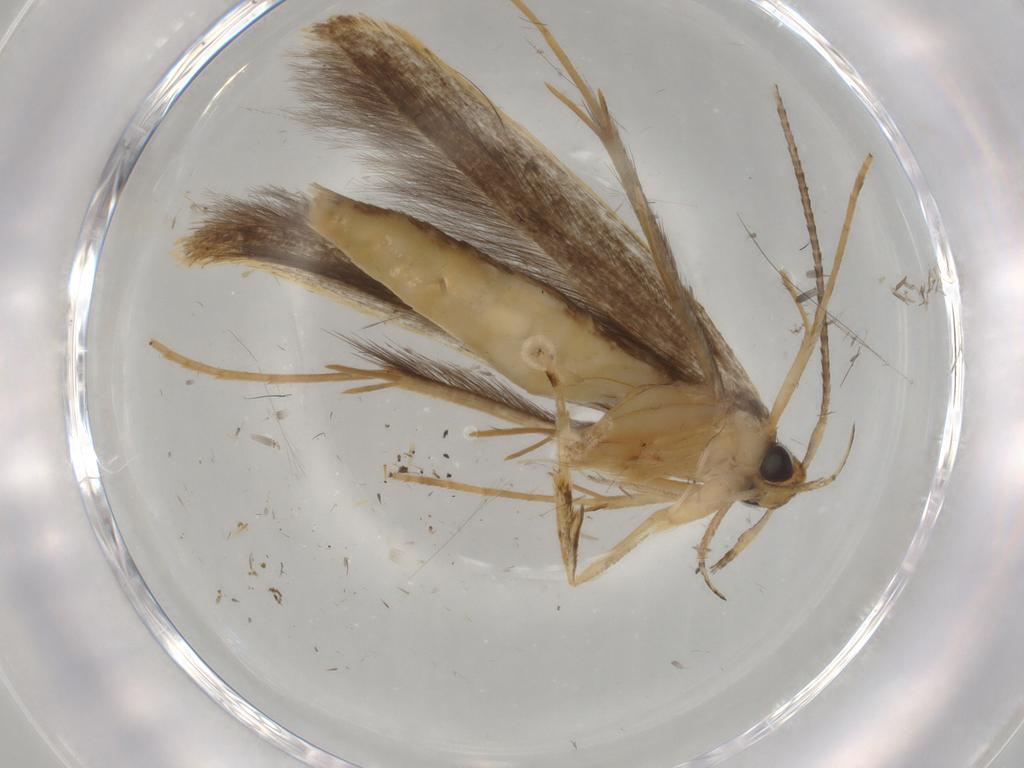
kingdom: Animalia
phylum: Arthropoda
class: Insecta
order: Lepidoptera
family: Pterolonchidae
